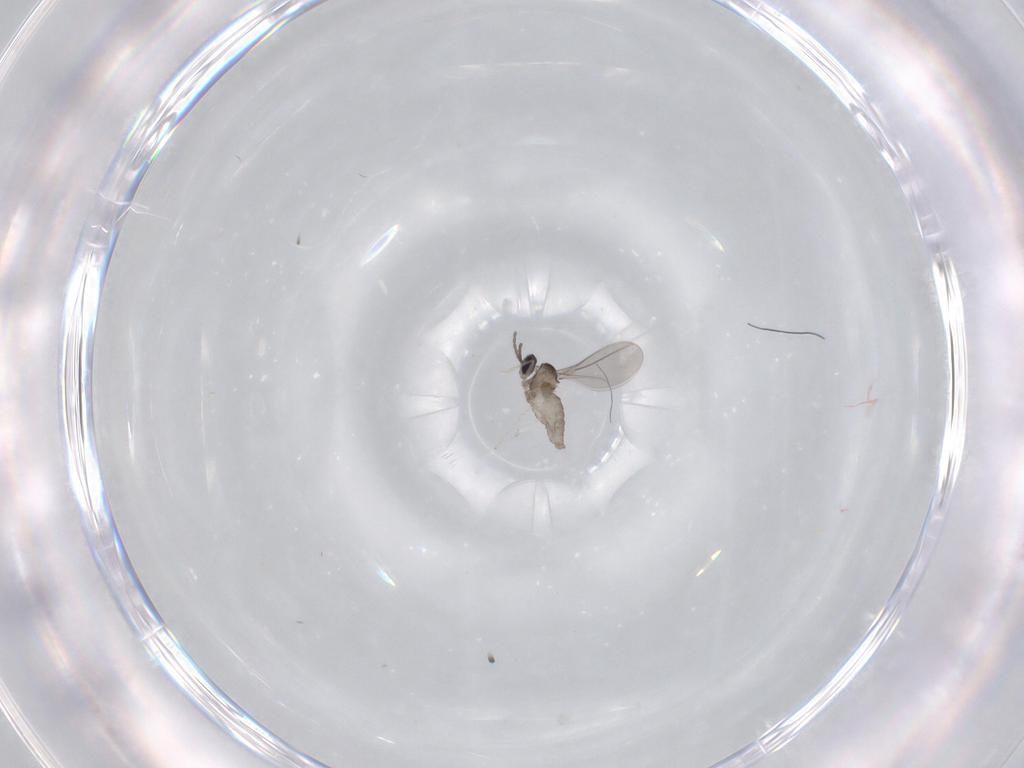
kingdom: Animalia
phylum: Arthropoda
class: Insecta
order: Diptera
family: Cecidomyiidae
